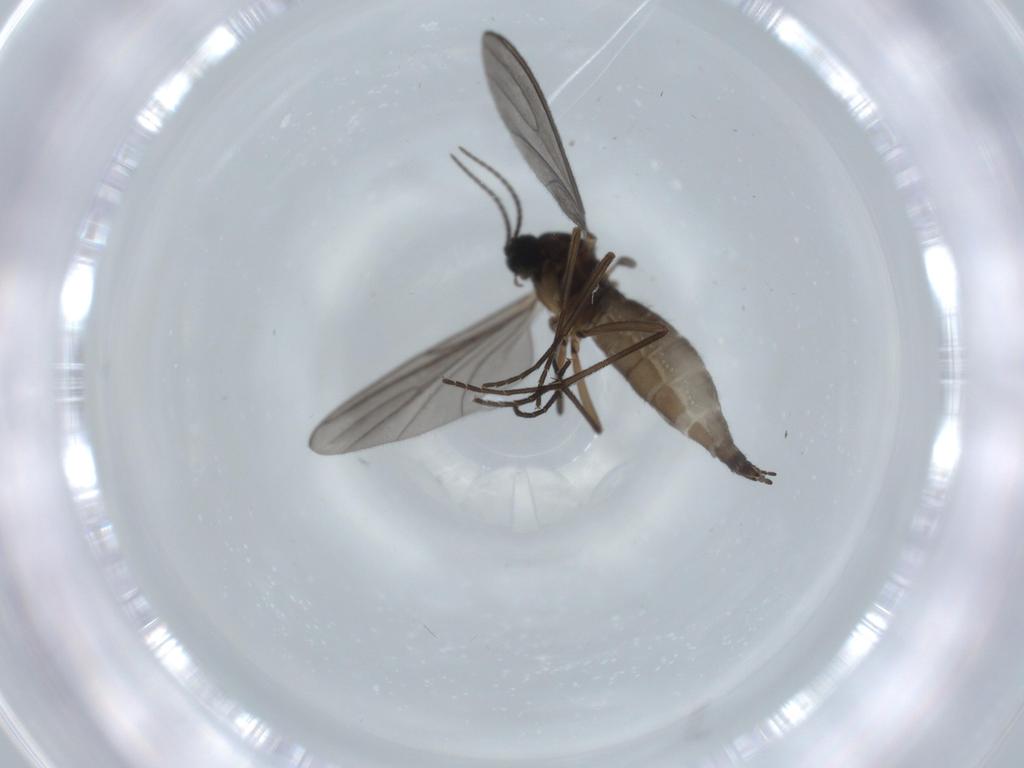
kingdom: Animalia
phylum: Arthropoda
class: Insecta
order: Diptera
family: Sciaridae
